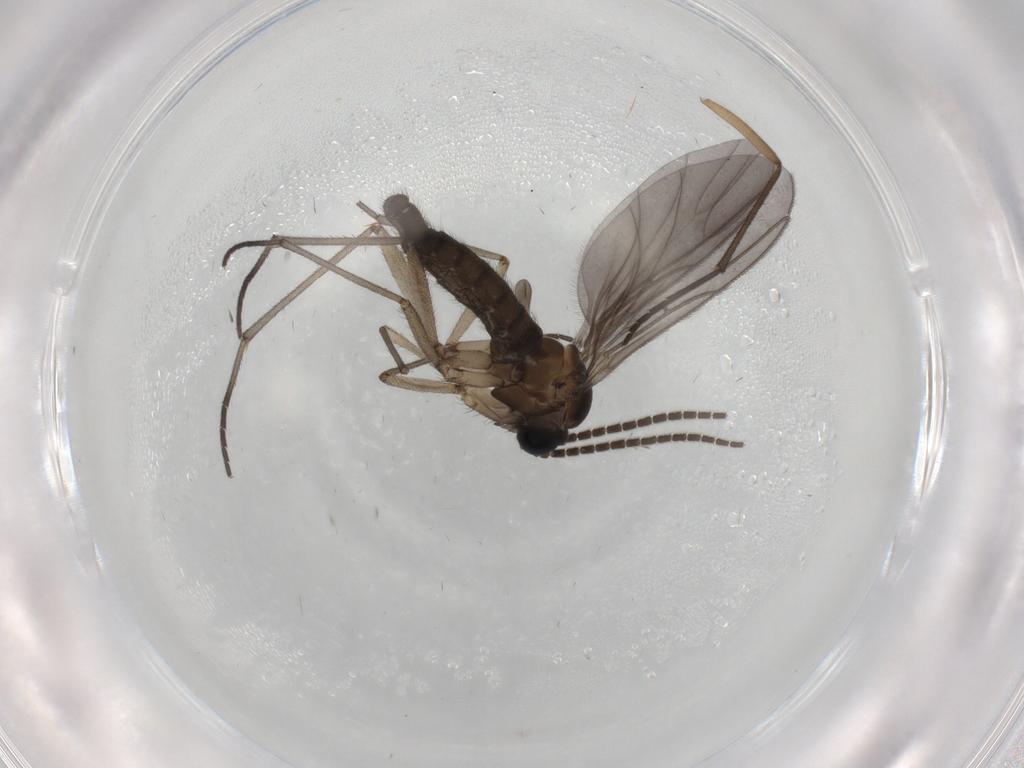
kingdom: Animalia
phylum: Arthropoda
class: Insecta
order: Diptera
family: Sciaridae
